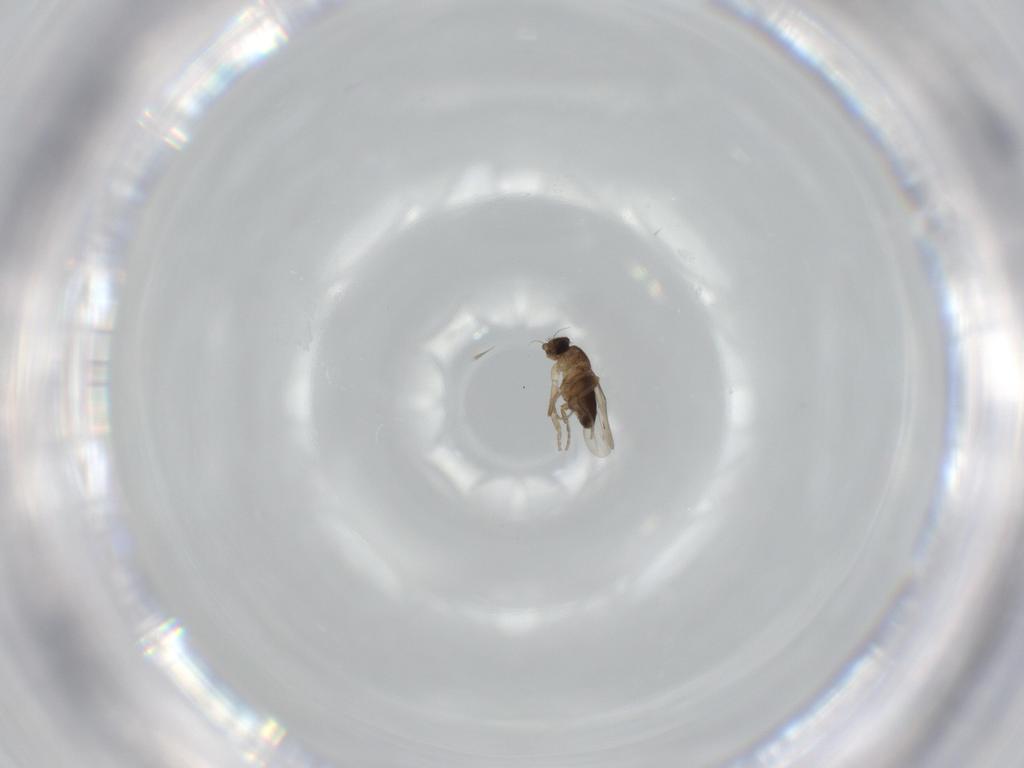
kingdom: Animalia
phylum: Arthropoda
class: Insecta
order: Diptera
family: Phoridae
